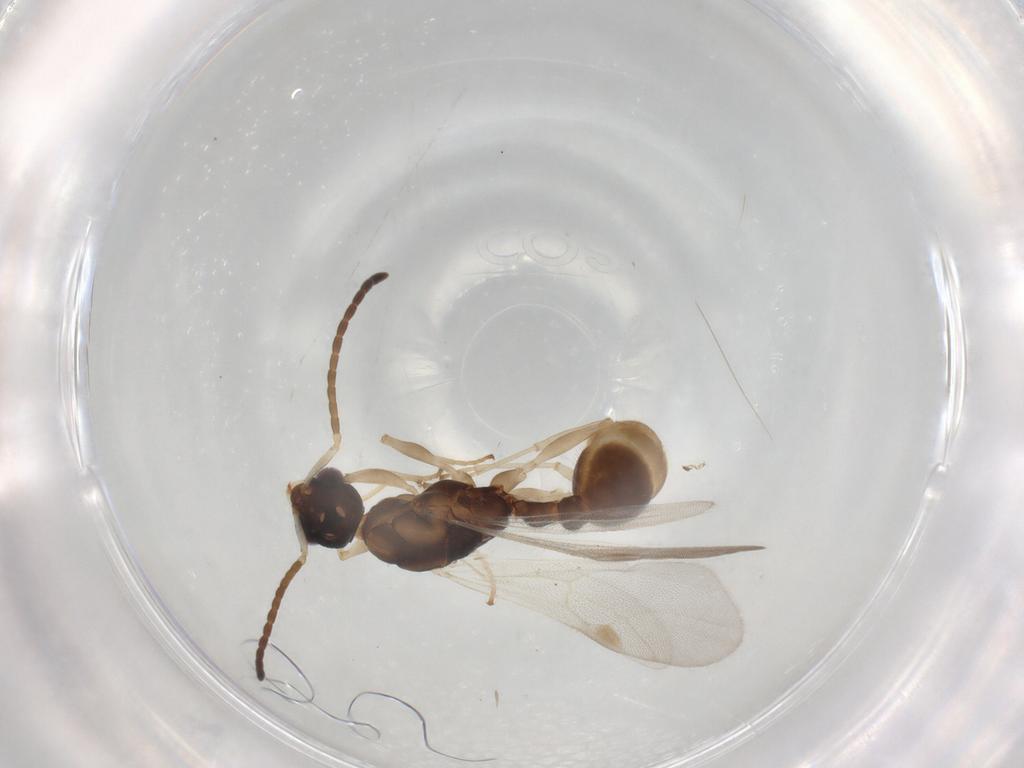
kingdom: Animalia
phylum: Arthropoda
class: Insecta
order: Hymenoptera
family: Formicidae
